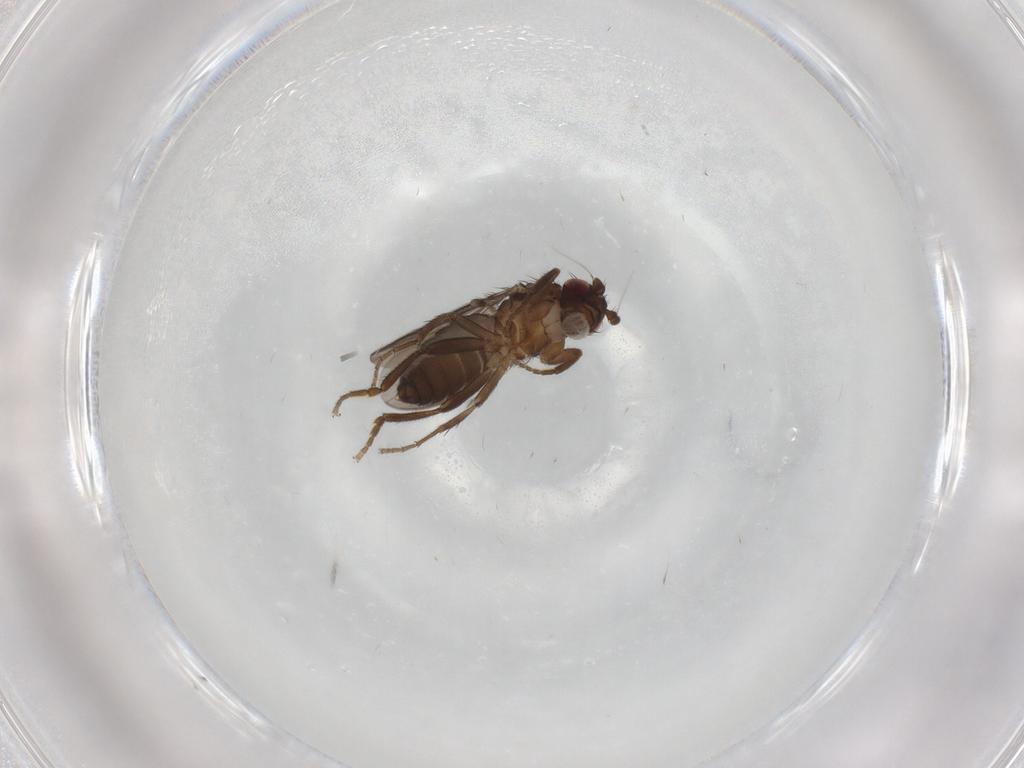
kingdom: Animalia
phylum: Arthropoda
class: Insecta
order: Diptera
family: Sphaeroceridae
